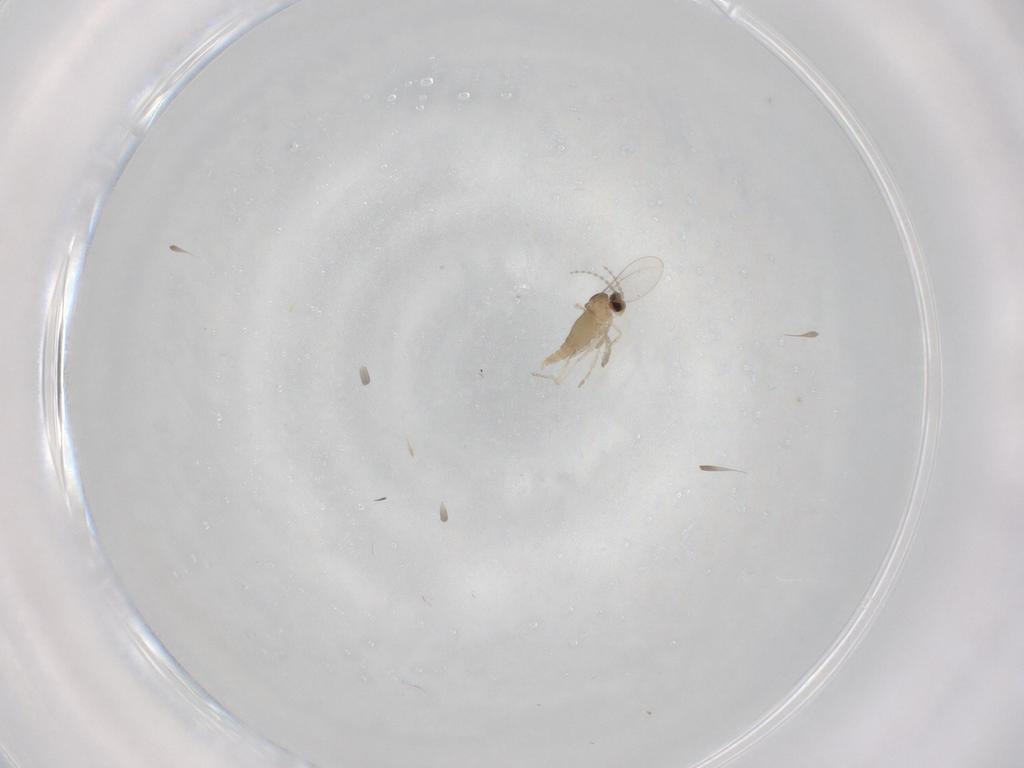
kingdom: Animalia
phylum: Arthropoda
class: Insecta
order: Diptera
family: Cecidomyiidae
